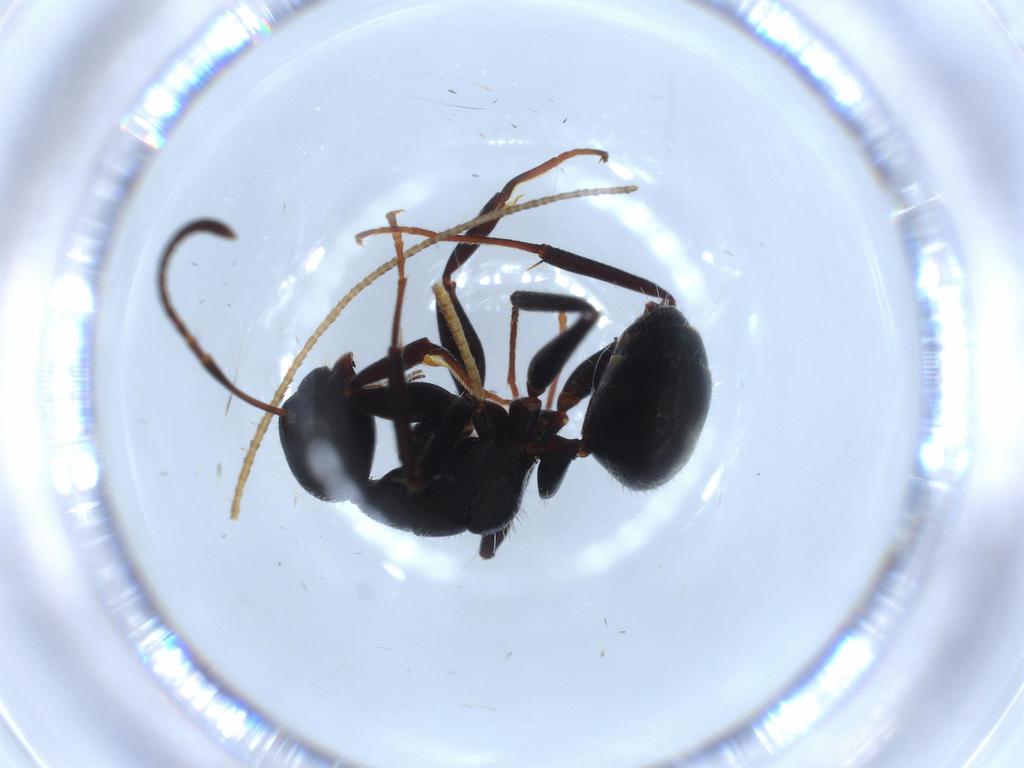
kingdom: Animalia
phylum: Arthropoda
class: Insecta
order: Hymenoptera
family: Formicidae
